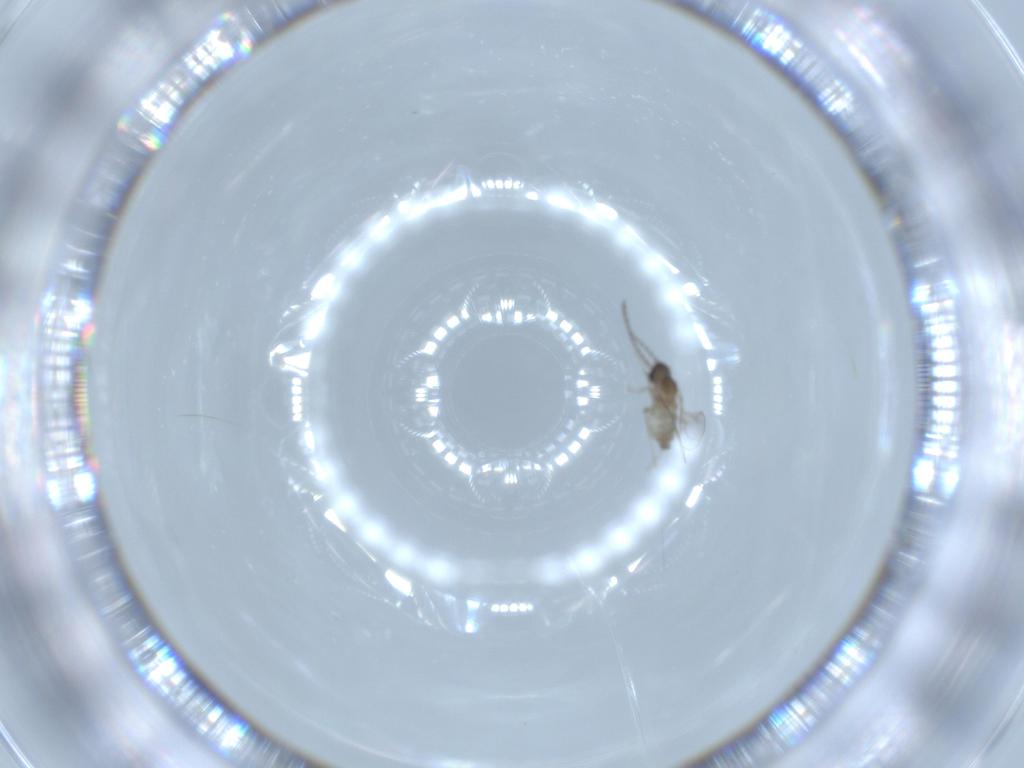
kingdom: Animalia
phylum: Arthropoda
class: Insecta
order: Diptera
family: Cecidomyiidae
